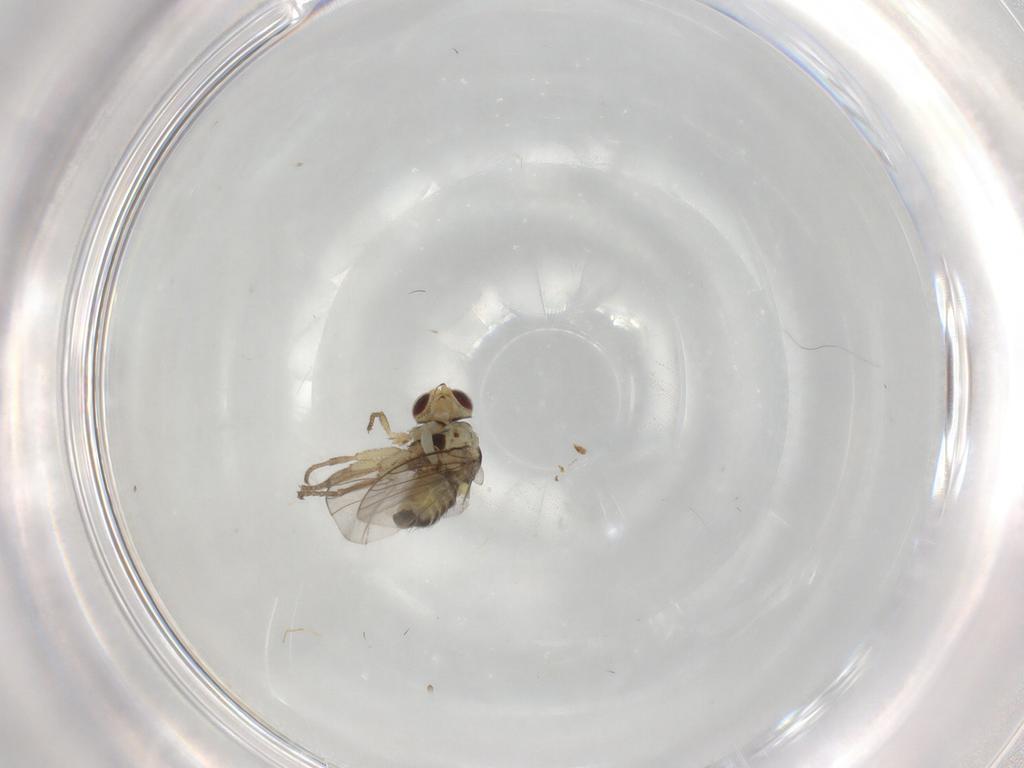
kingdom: Animalia
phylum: Arthropoda
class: Insecta
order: Diptera
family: Agromyzidae
